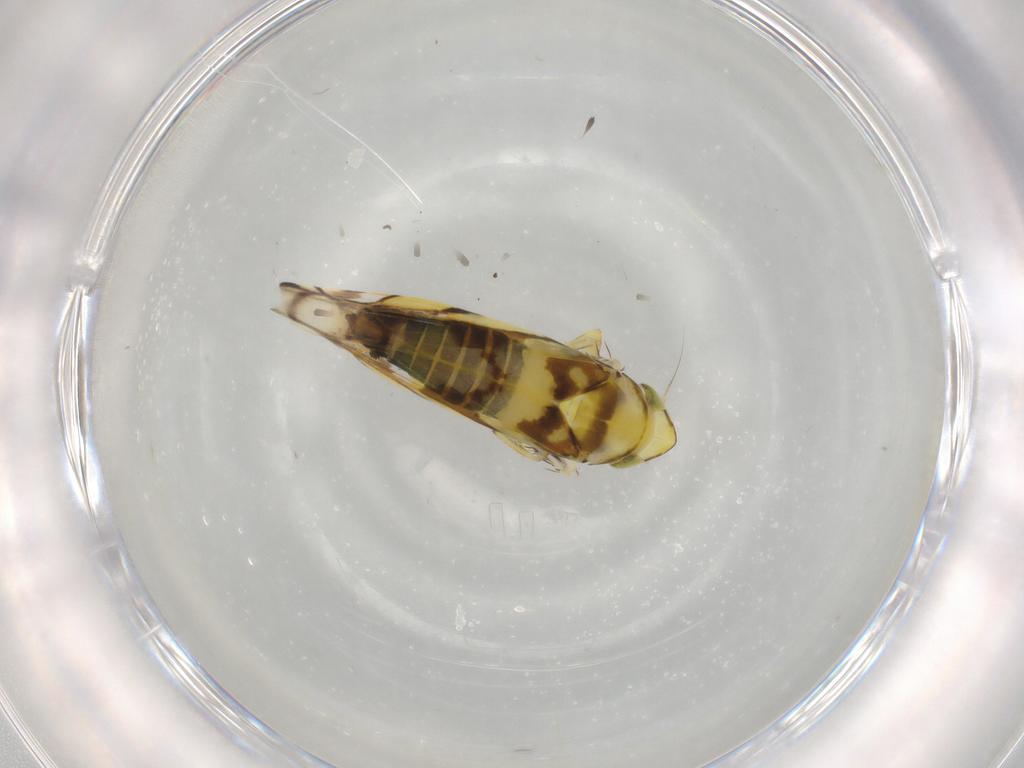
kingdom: Animalia
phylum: Arthropoda
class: Insecta
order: Hemiptera
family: Cicadellidae
